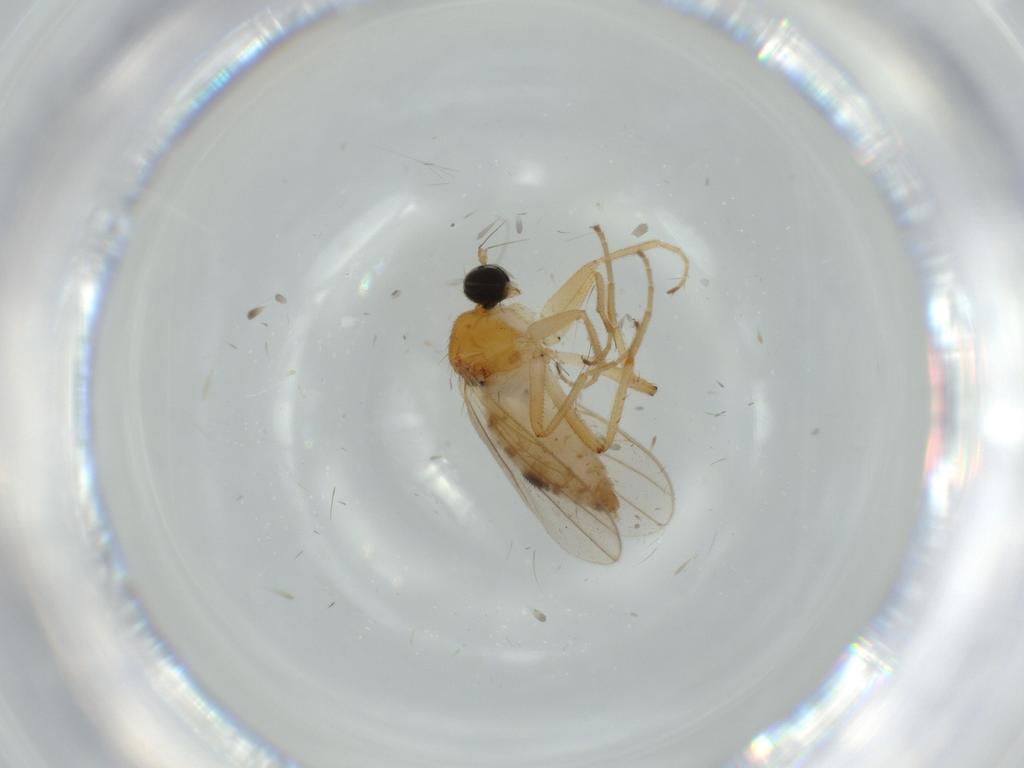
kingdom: Animalia
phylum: Arthropoda
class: Insecta
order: Diptera
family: Hybotidae
